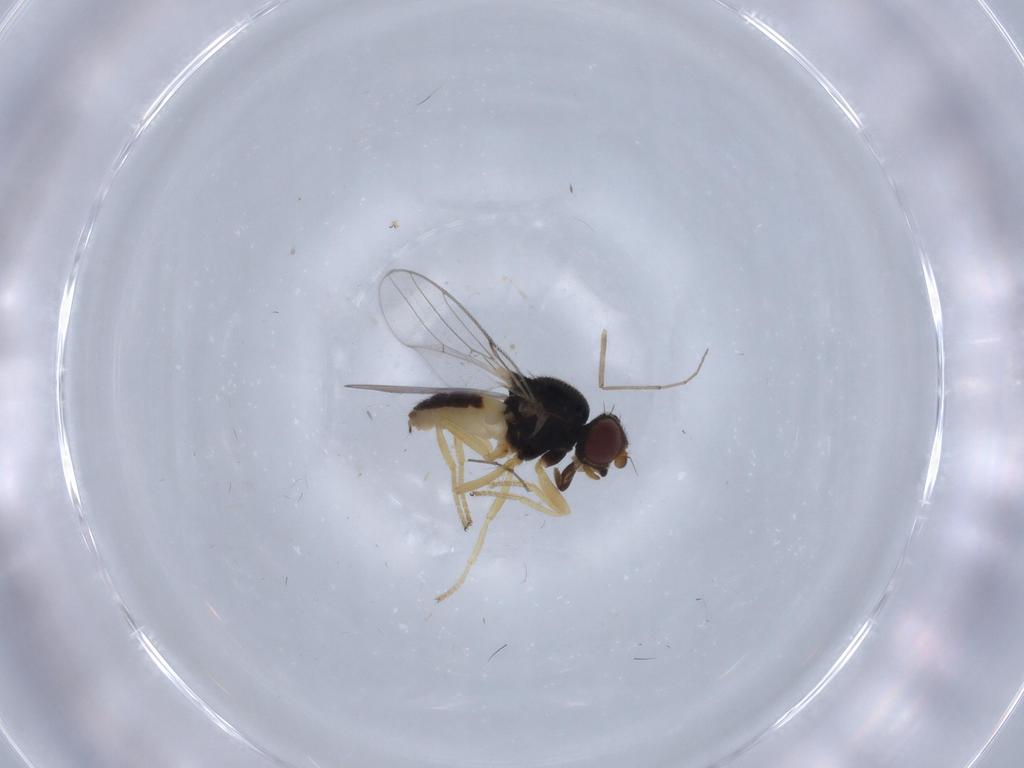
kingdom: Animalia
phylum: Arthropoda
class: Insecta
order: Diptera
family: Chloropidae
